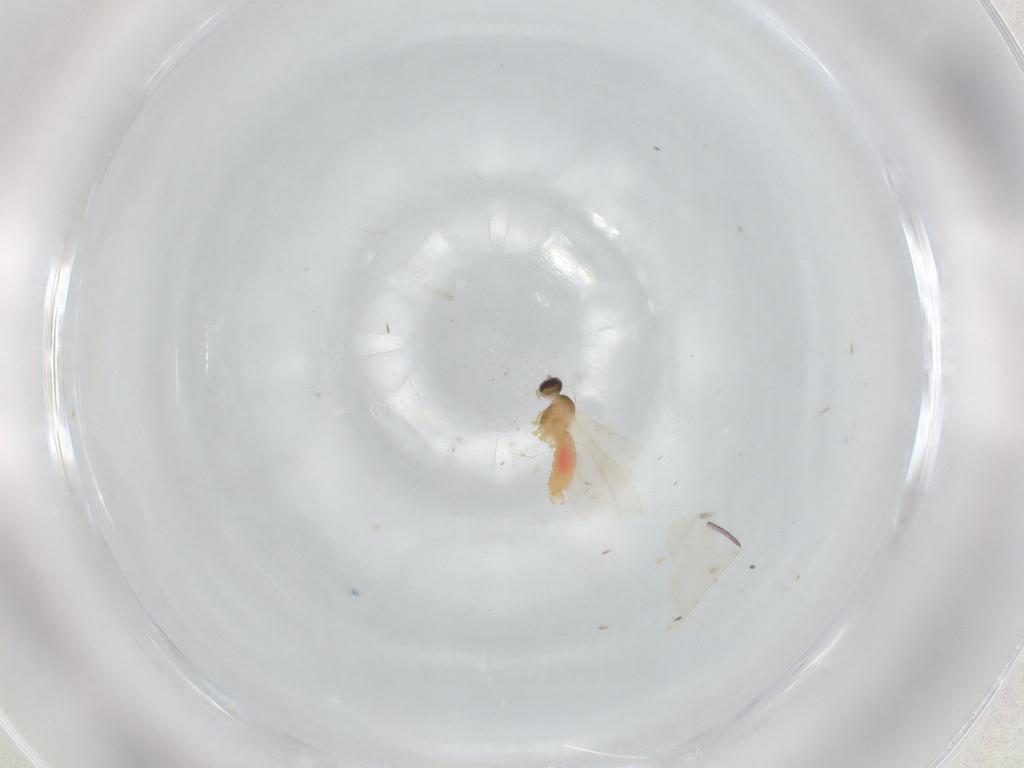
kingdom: Animalia
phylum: Arthropoda
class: Insecta
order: Diptera
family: Cecidomyiidae
